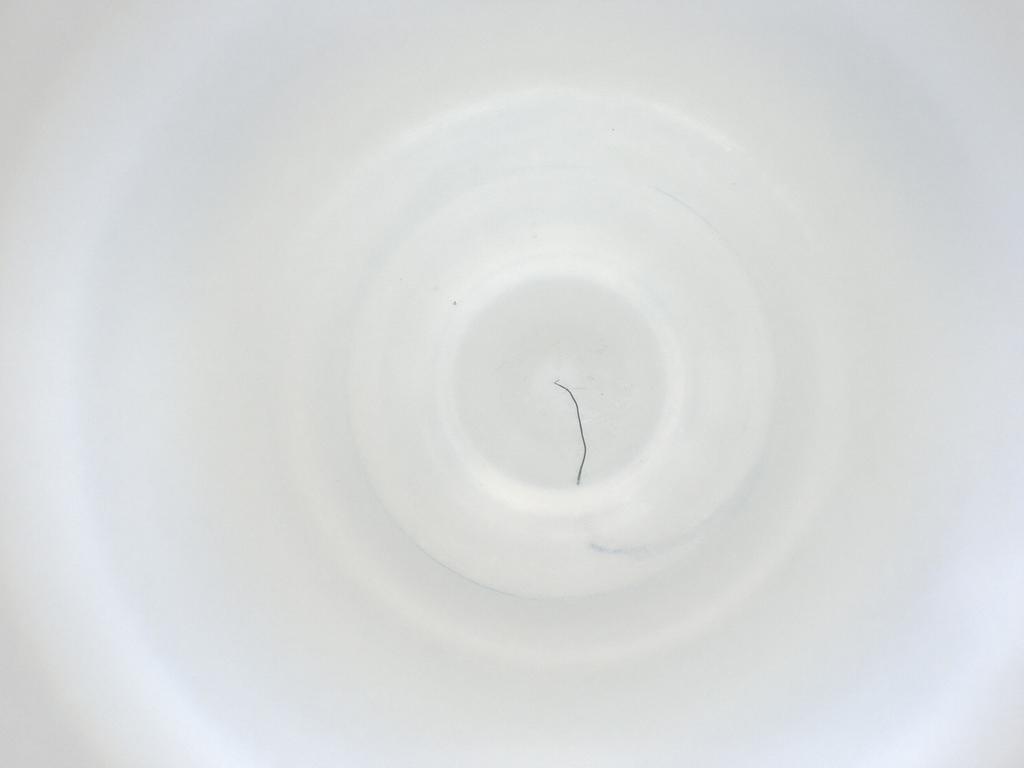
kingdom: Animalia
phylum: Arthropoda
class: Insecta
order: Diptera
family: Cecidomyiidae
